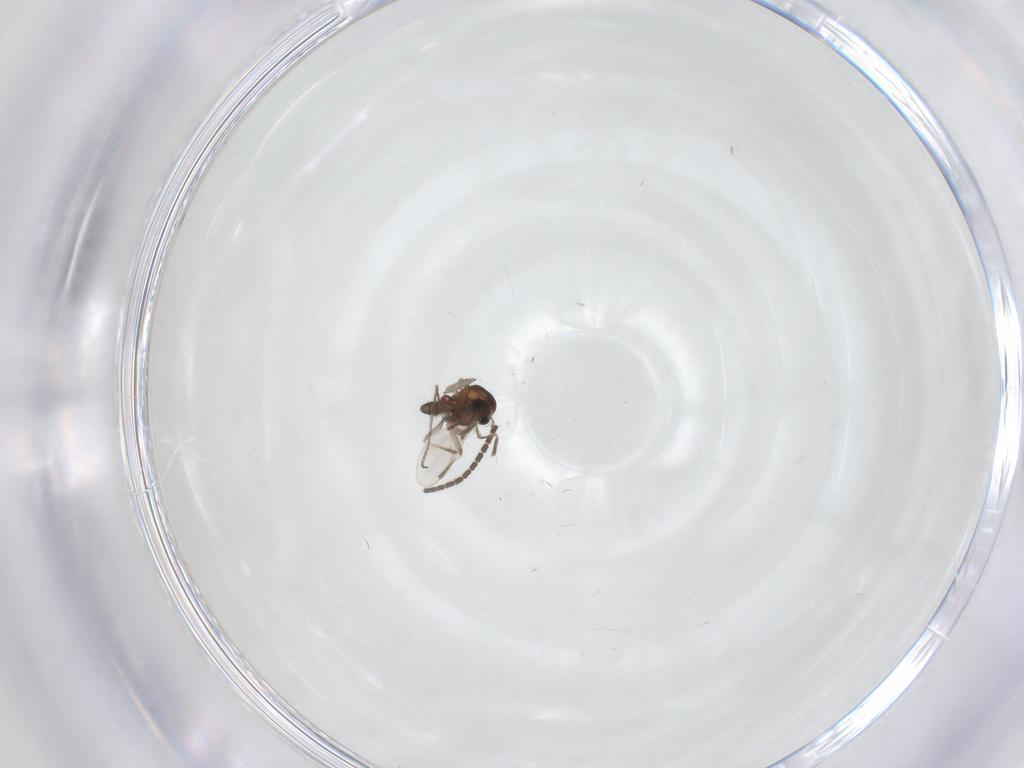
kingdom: Animalia
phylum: Arthropoda
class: Insecta
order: Diptera
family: Chironomidae
